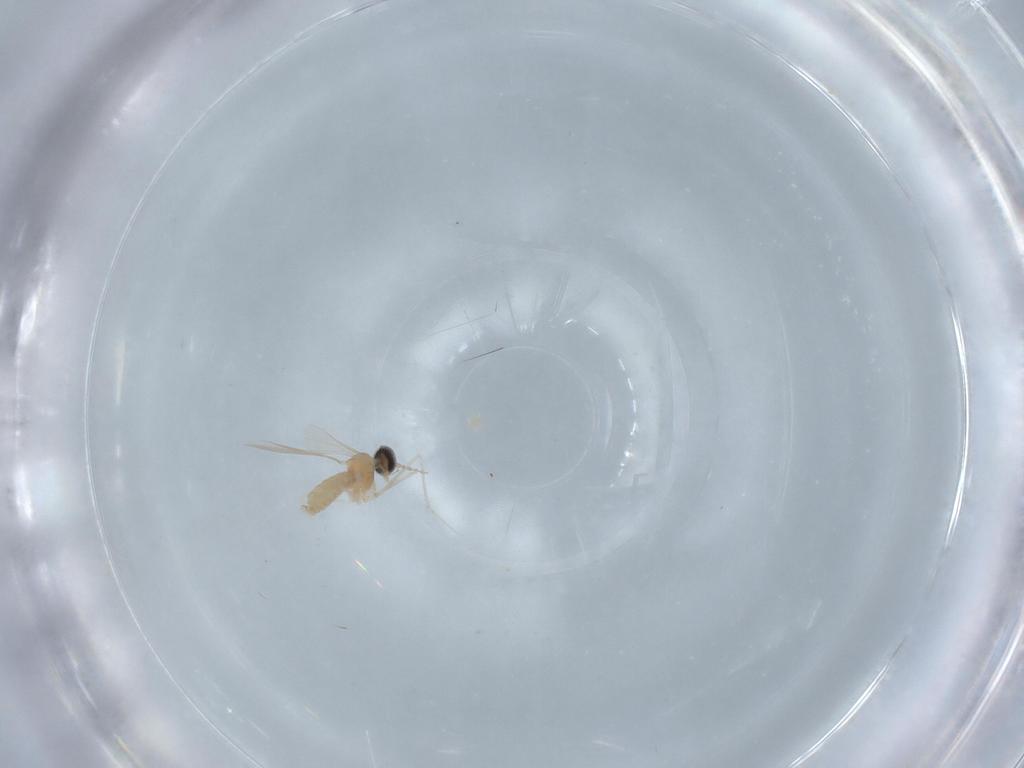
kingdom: Animalia
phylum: Arthropoda
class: Insecta
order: Diptera
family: Cecidomyiidae
